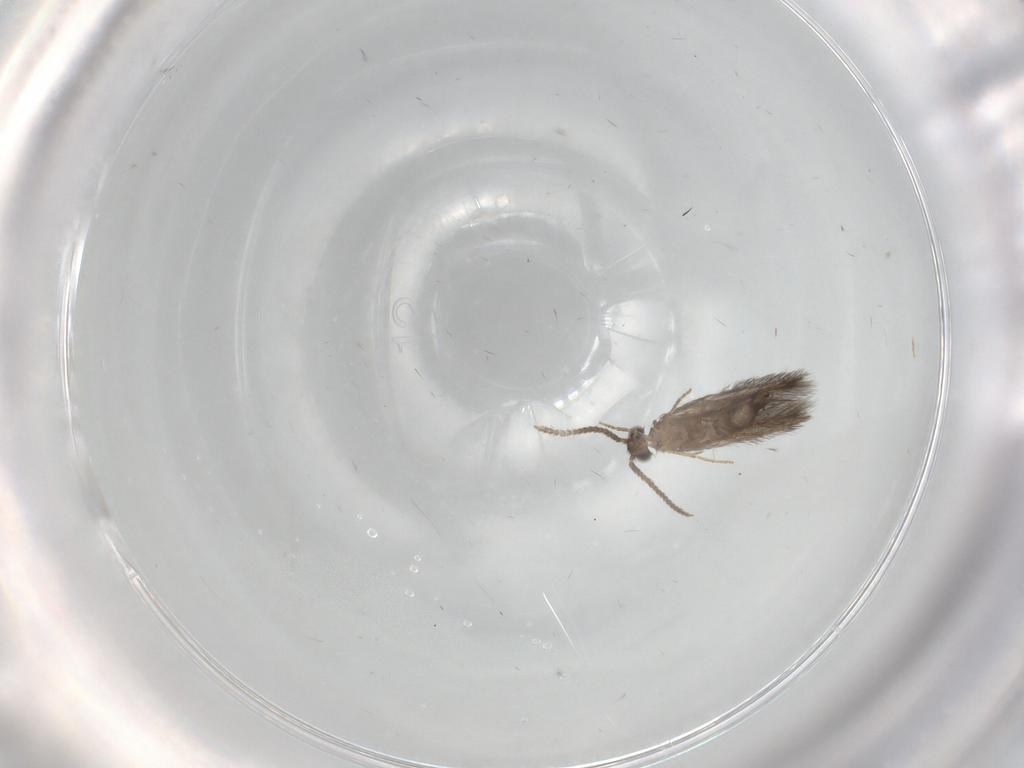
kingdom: Animalia
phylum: Arthropoda
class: Insecta
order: Trichoptera
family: Hydroptilidae
